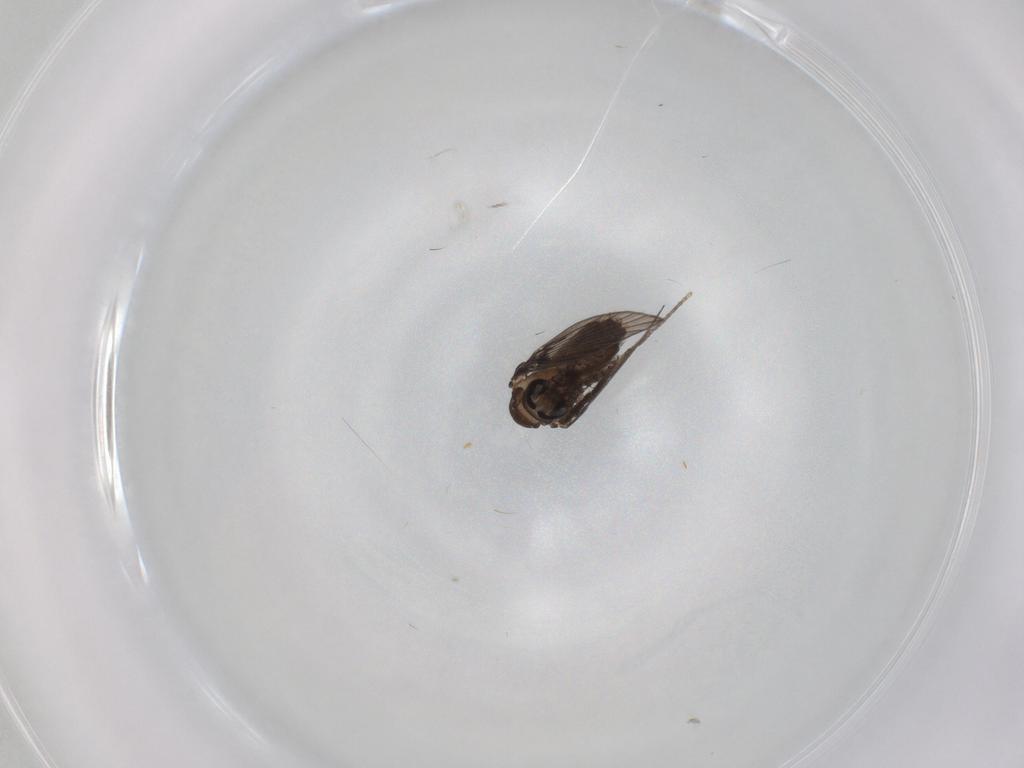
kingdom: Animalia
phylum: Arthropoda
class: Insecta
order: Diptera
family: Psychodidae
